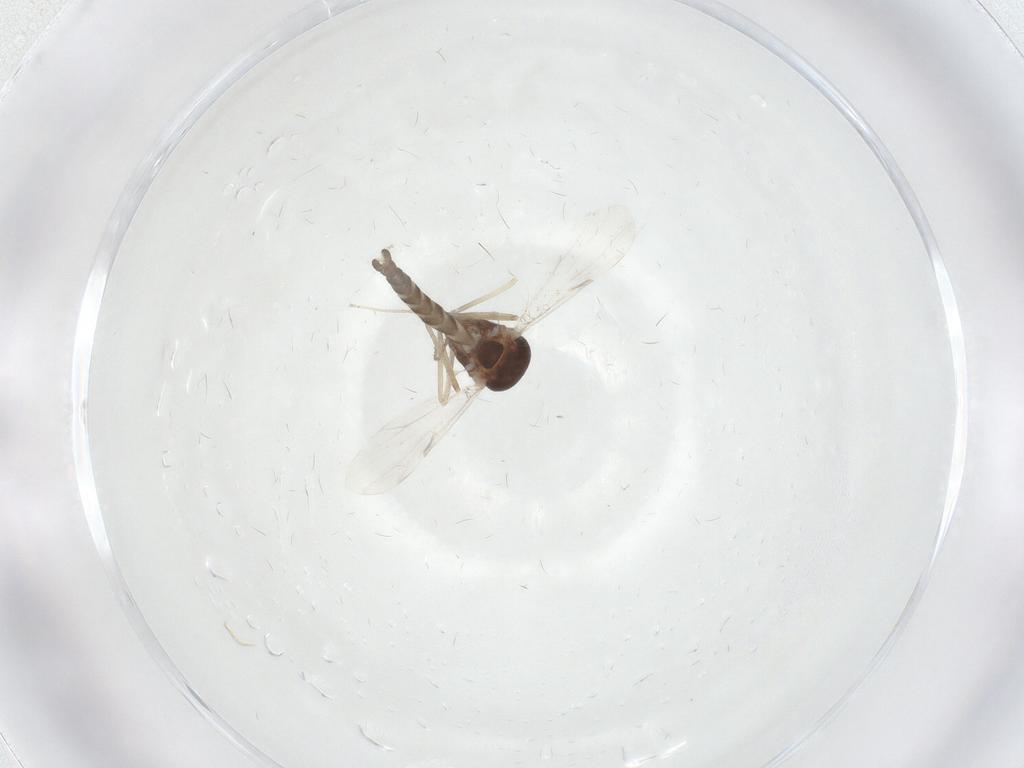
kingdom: Animalia
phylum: Arthropoda
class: Insecta
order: Diptera
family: Ceratopogonidae
